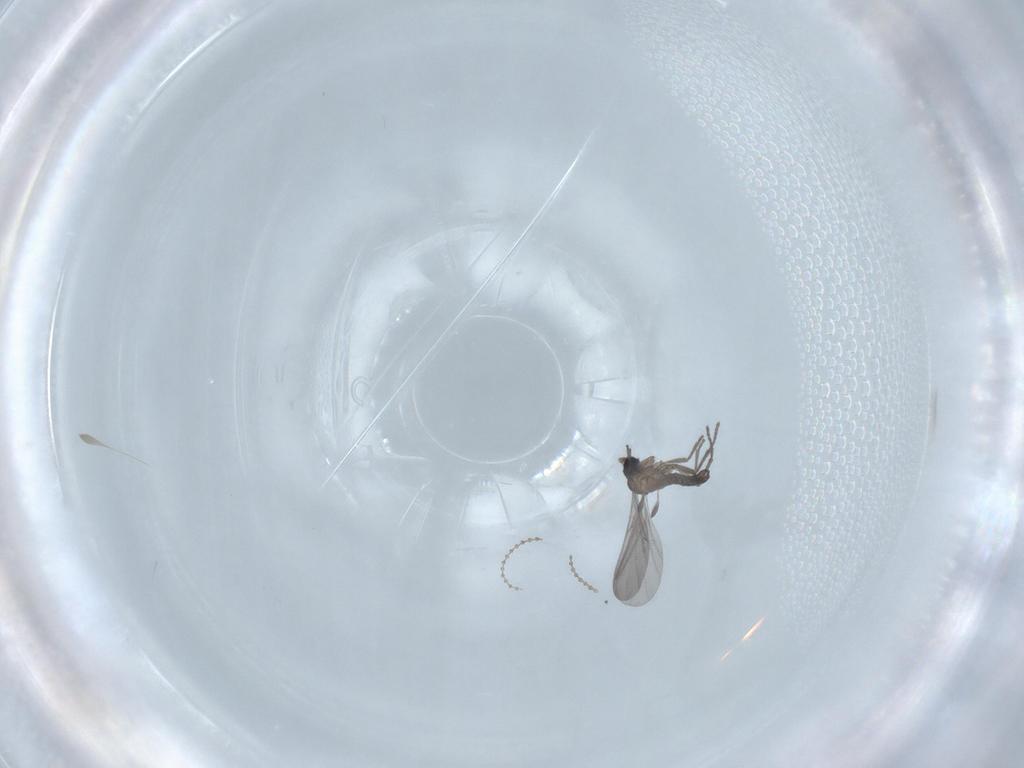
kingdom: Animalia
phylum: Arthropoda
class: Insecta
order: Diptera
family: Cecidomyiidae
